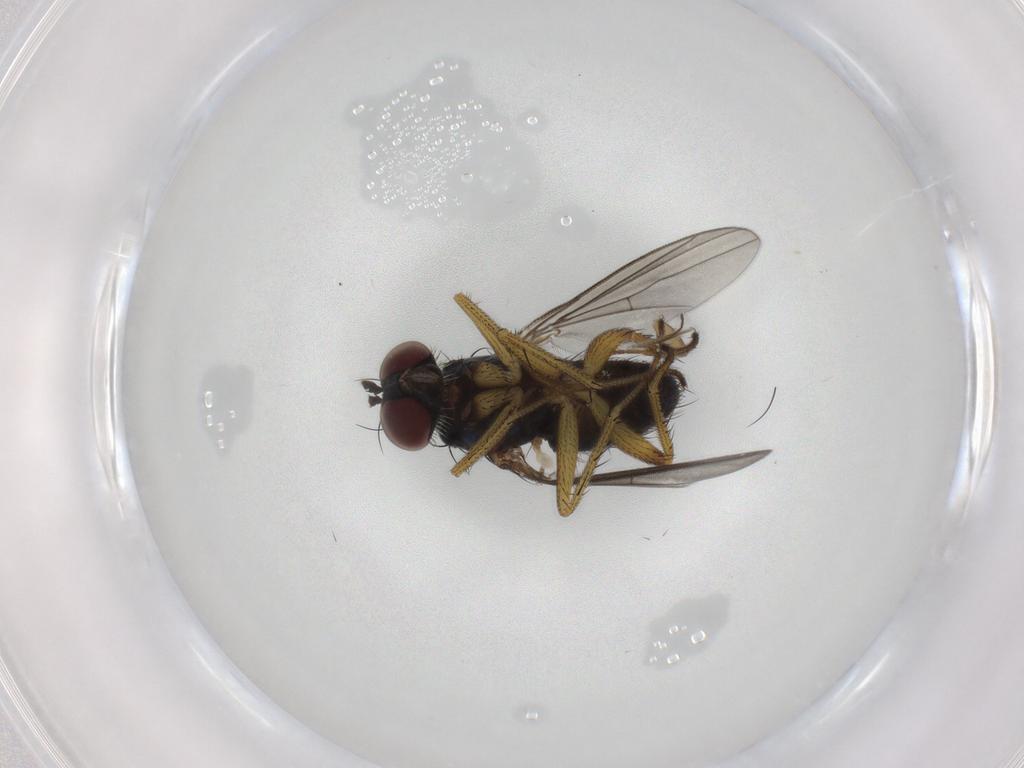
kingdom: Animalia
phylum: Arthropoda
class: Insecta
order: Diptera
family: Dolichopodidae
